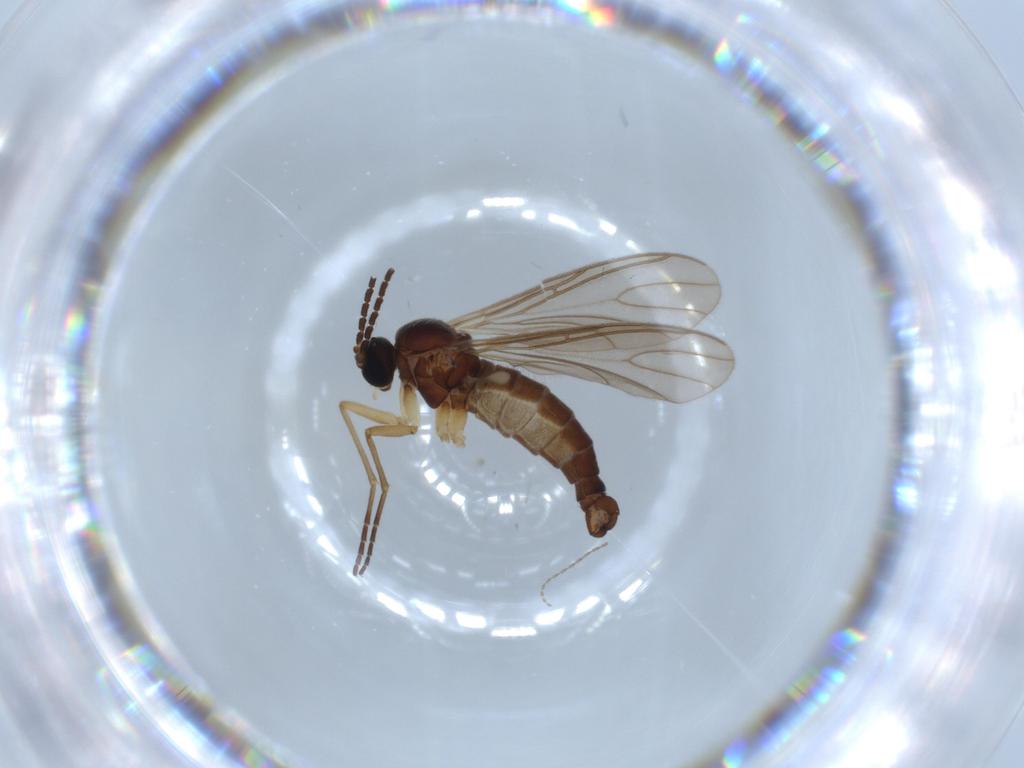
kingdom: Animalia
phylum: Arthropoda
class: Insecta
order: Diptera
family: Sciaridae
